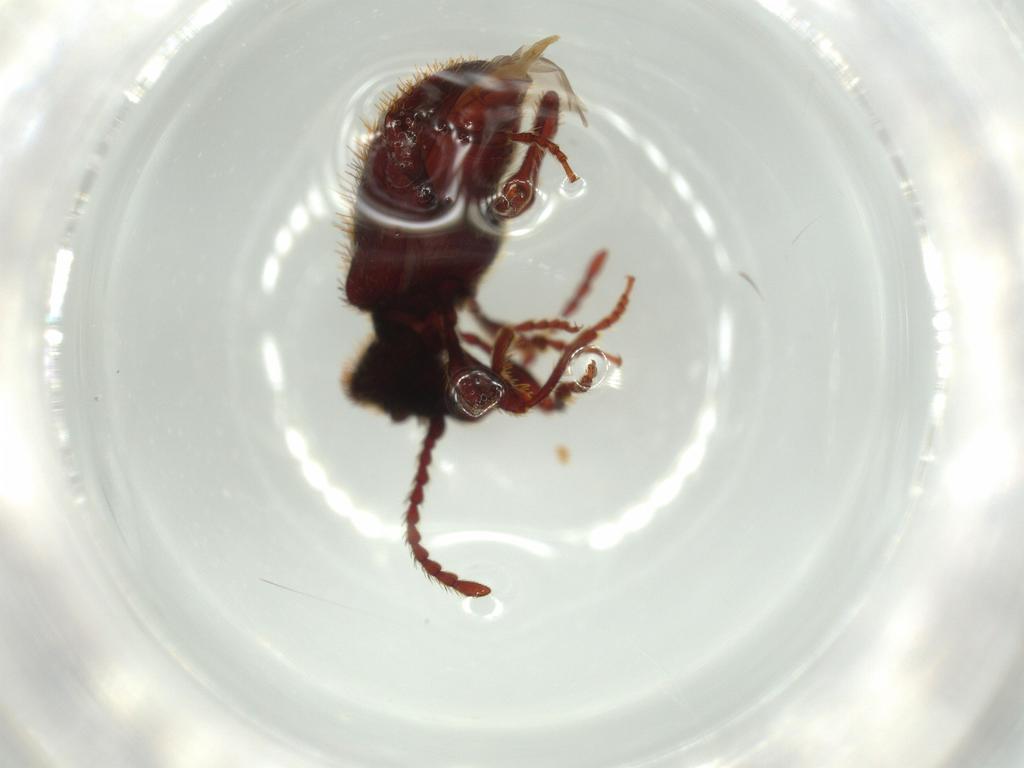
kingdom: Animalia
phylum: Arthropoda
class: Insecta
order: Coleoptera
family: Ptinidae
